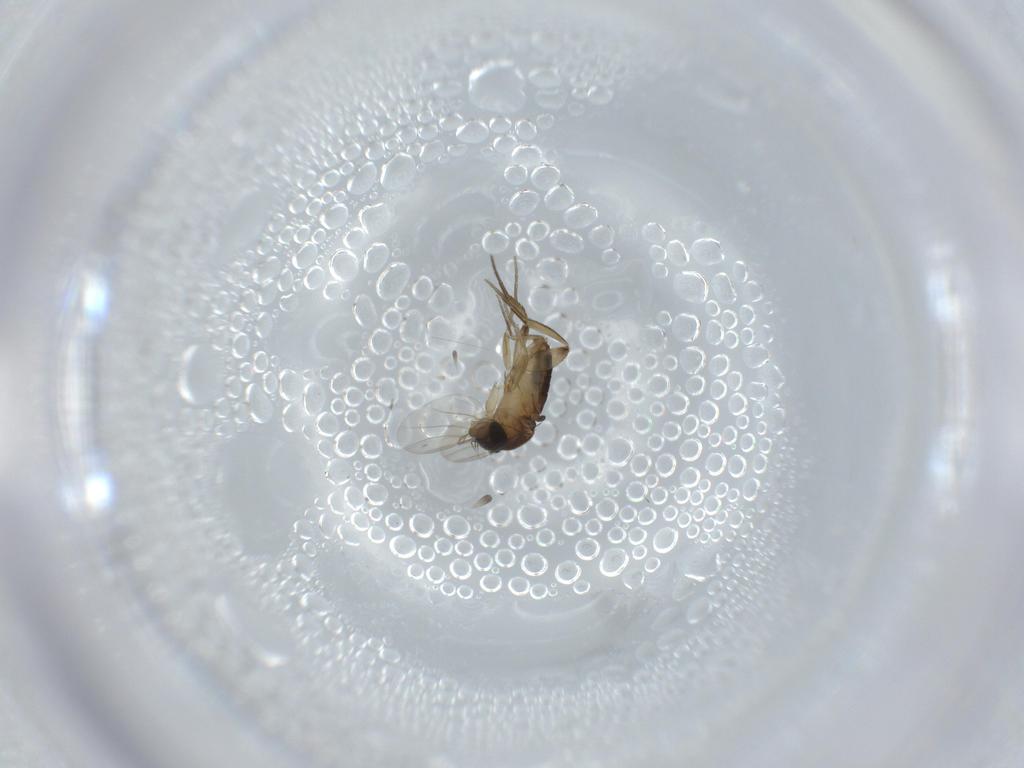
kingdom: Animalia
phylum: Arthropoda
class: Insecta
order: Diptera
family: Phoridae
